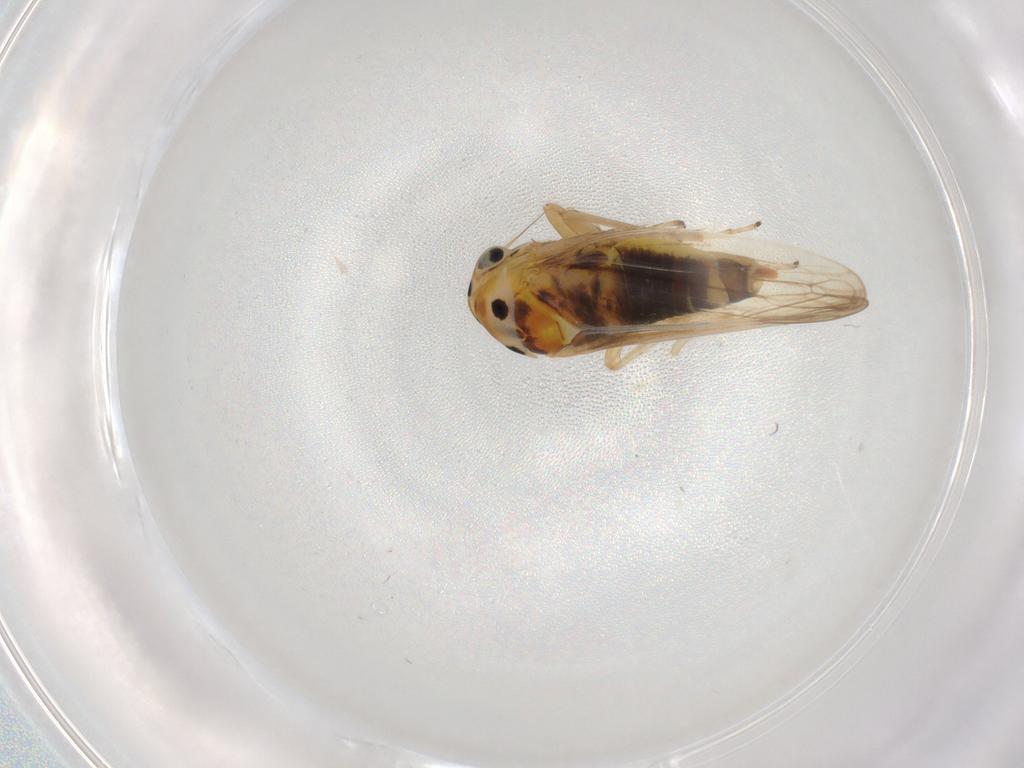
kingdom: Animalia
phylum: Arthropoda
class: Insecta
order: Hemiptera
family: Cicadellidae
